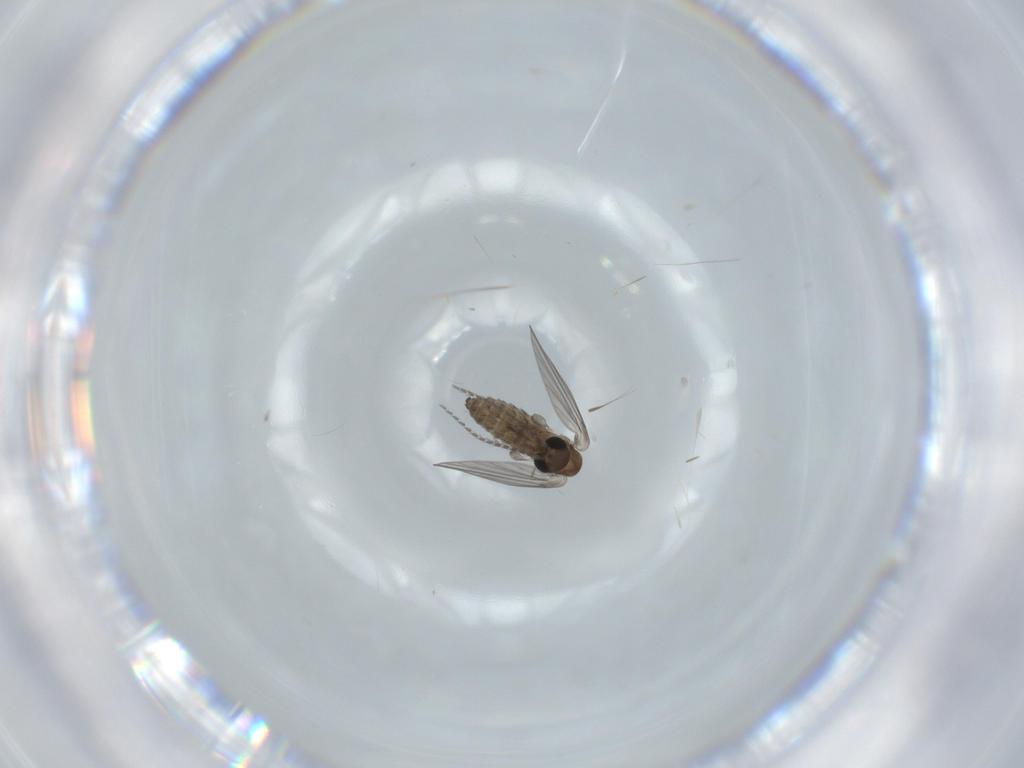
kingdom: Animalia
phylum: Arthropoda
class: Insecta
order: Diptera
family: Psychodidae
